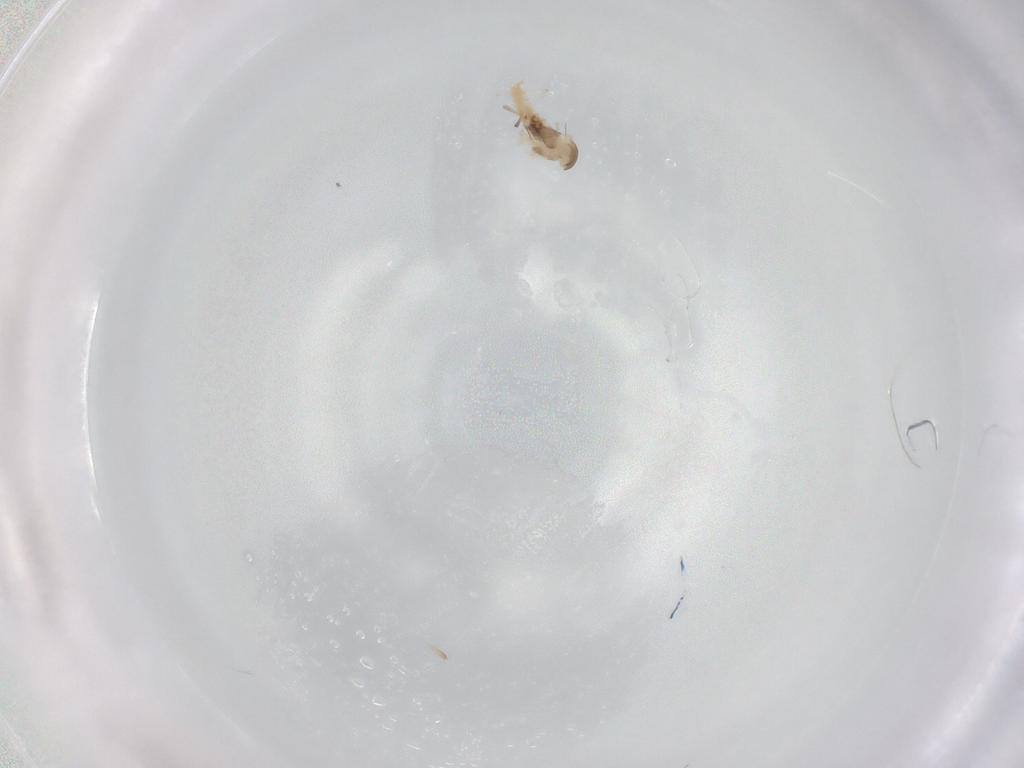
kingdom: Animalia
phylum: Arthropoda
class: Insecta
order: Diptera
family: Cecidomyiidae
